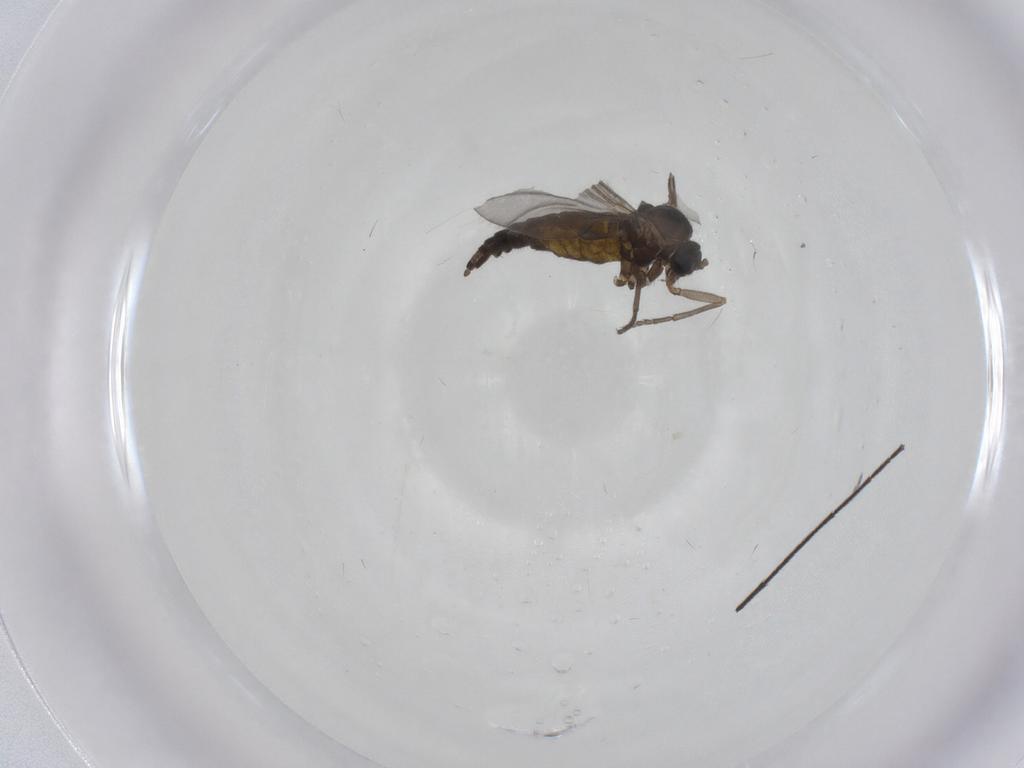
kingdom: Animalia
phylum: Arthropoda
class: Insecta
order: Diptera
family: Sciaridae
